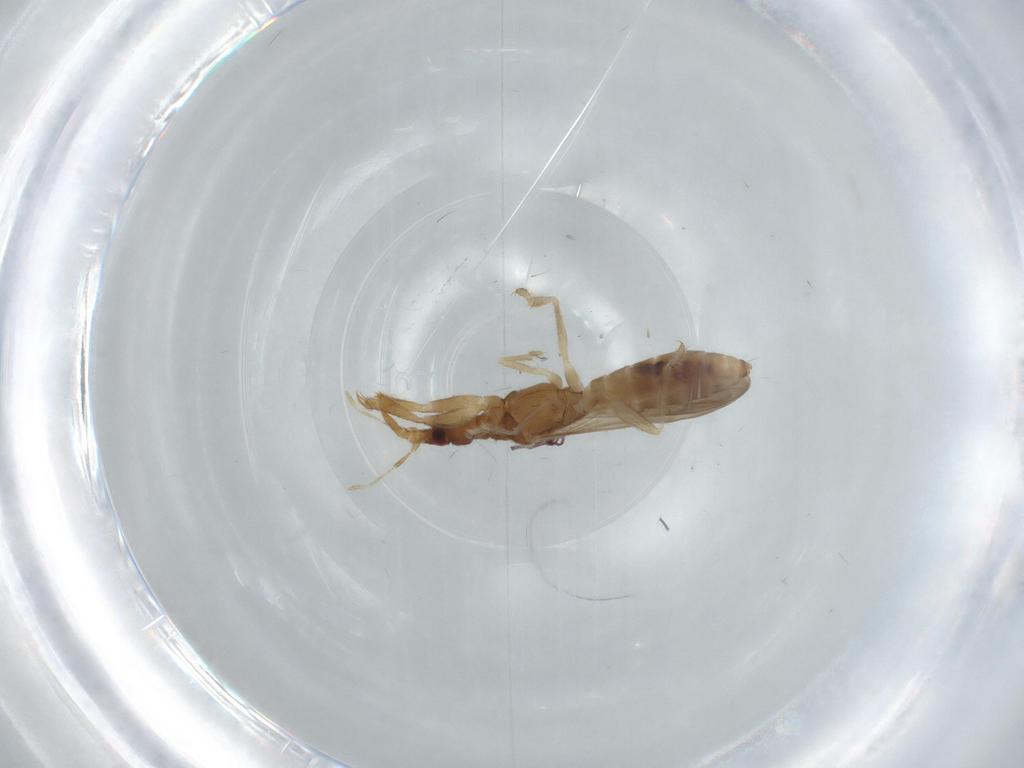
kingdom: Animalia
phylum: Arthropoda
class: Insecta
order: Hemiptera
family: Enicocephalidae
